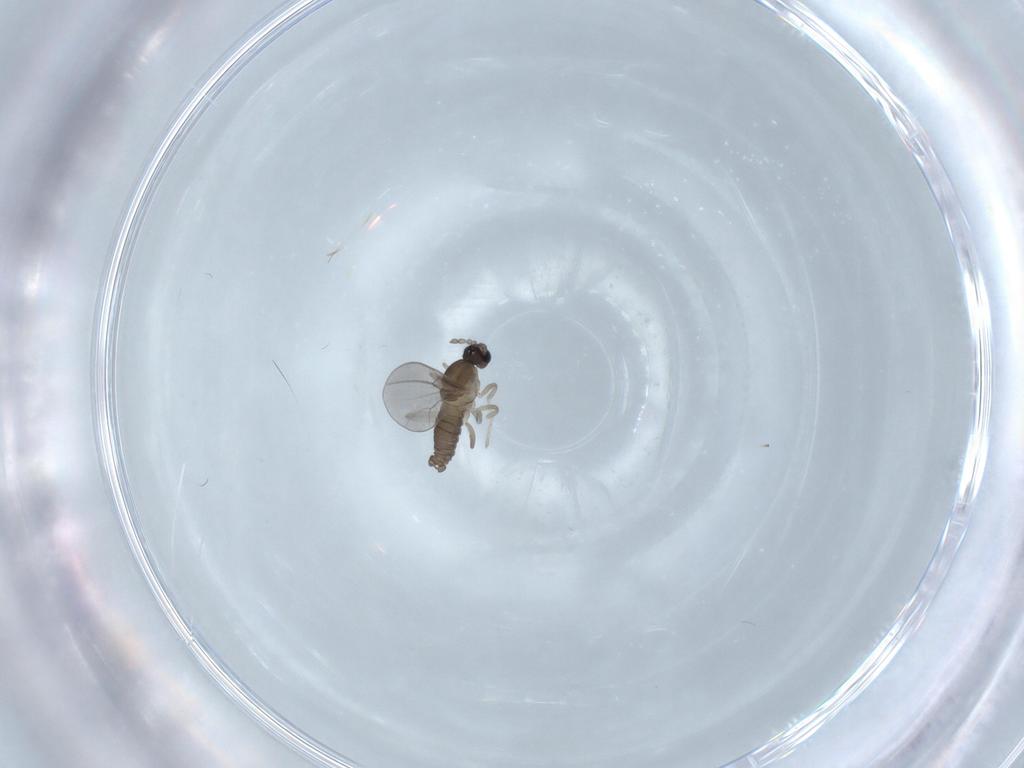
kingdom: Animalia
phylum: Arthropoda
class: Insecta
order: Diptera
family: Cecidomyiidae
